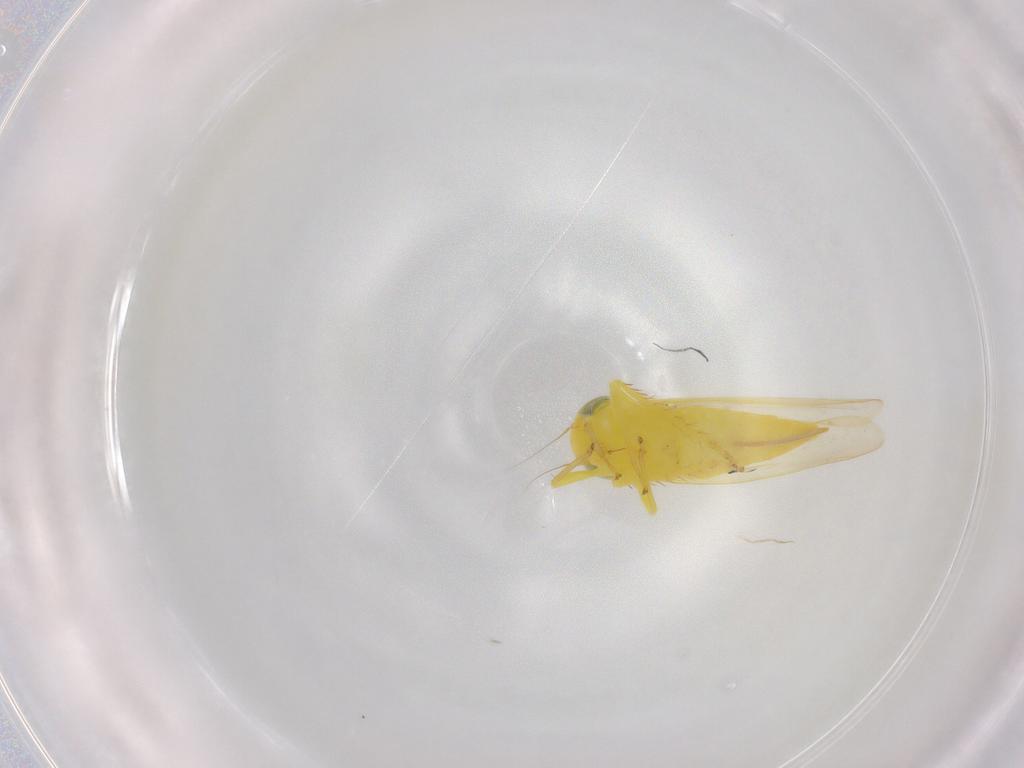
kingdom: Animalia
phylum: Arthropoda
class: Insecta
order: Hemiptera
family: Cicadellidae
